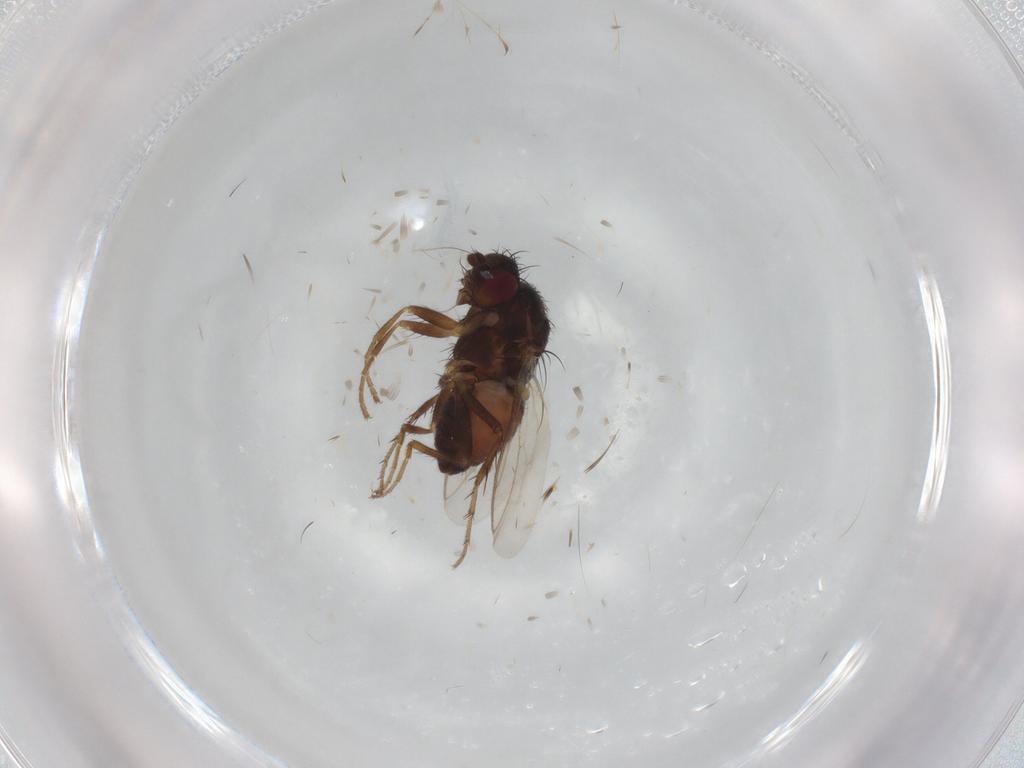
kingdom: Animalia
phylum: Arthropoda
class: Insecta
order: Diptera
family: Sphaeroceridae
